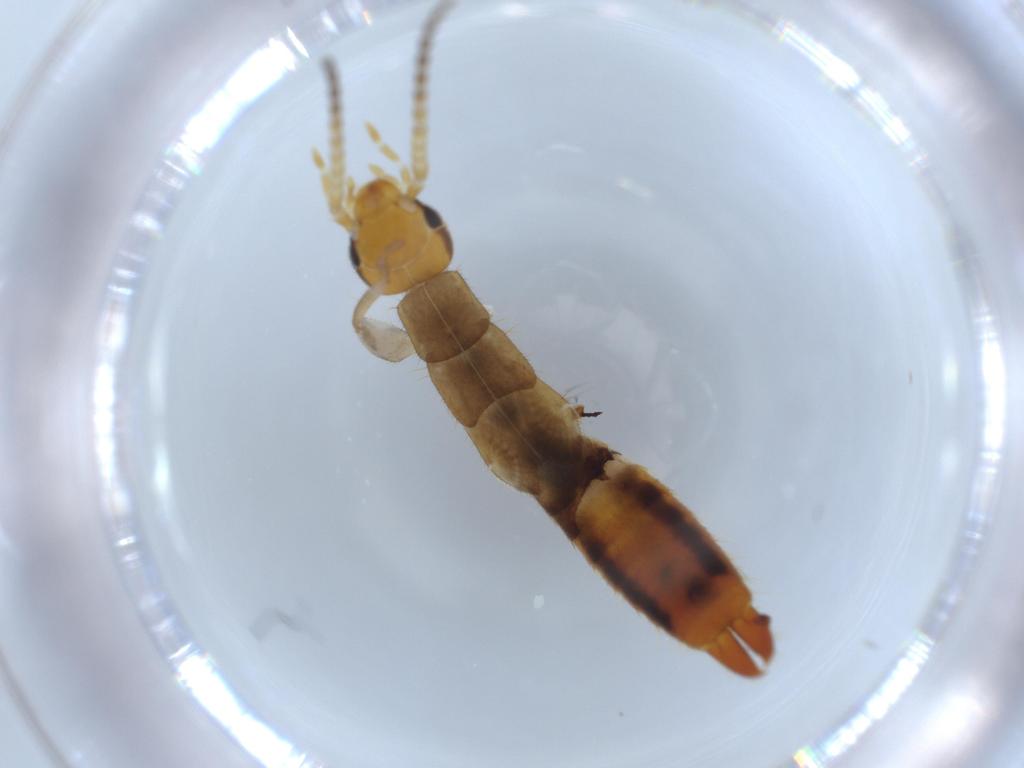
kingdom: Animalia
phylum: Arthropoda
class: Insecta
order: Dermaptera
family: Forficulidae
